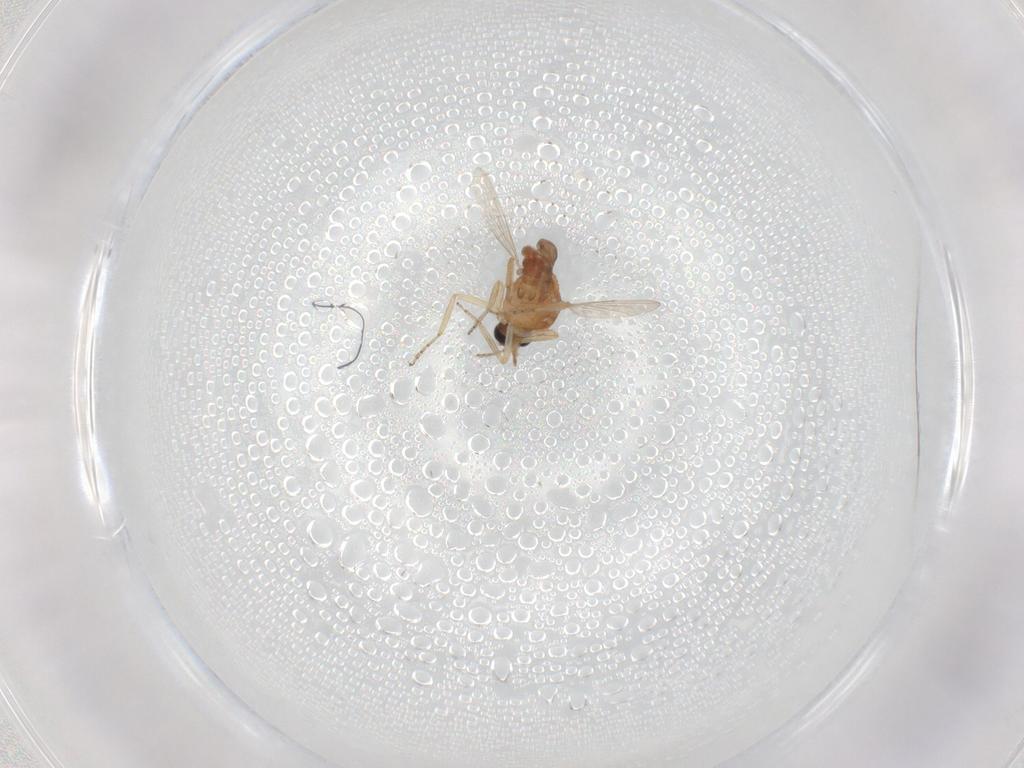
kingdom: Animalia
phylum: Arthropoda
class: Insecta
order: Diptera
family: Ceratopogonidae
